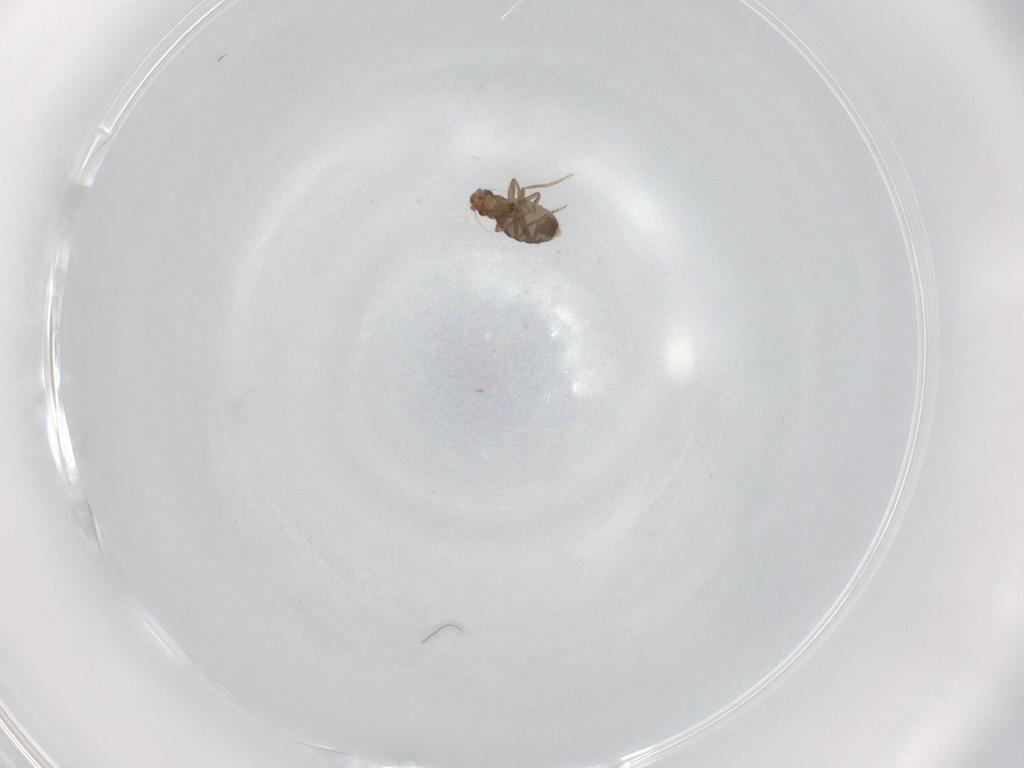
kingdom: Animalia
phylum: Arthropoda
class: Insecta
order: Diptera
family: Phoridae
